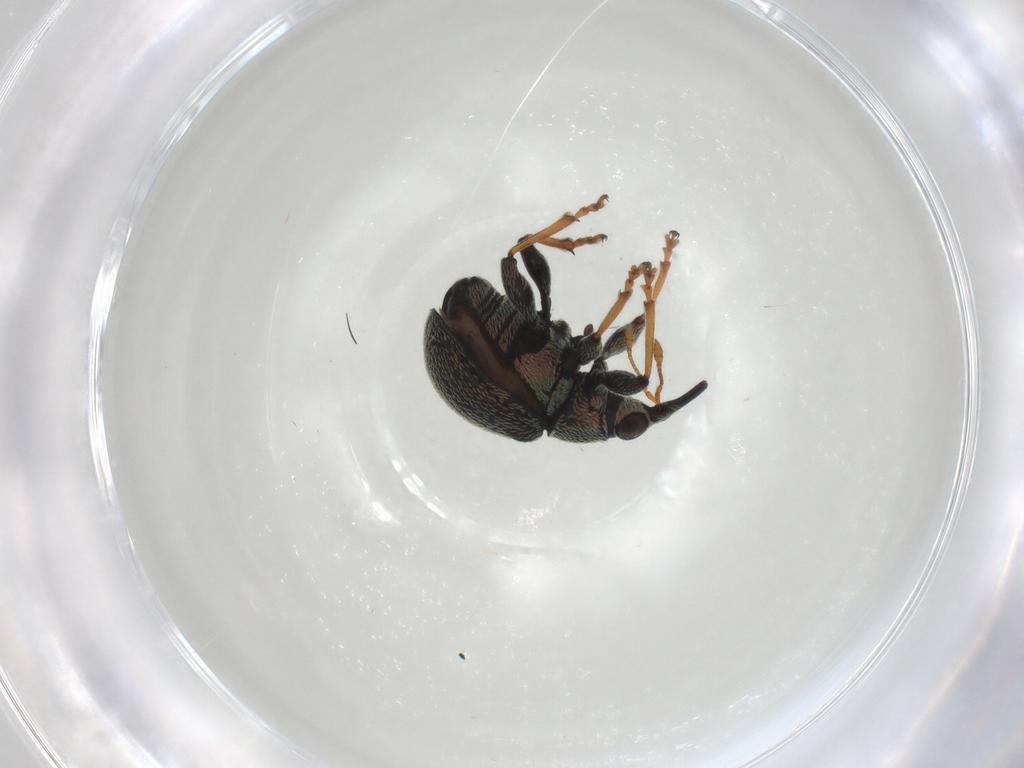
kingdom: Animalia
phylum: Arthropoda
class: Insecta
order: Coleoptera
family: Brentidae
